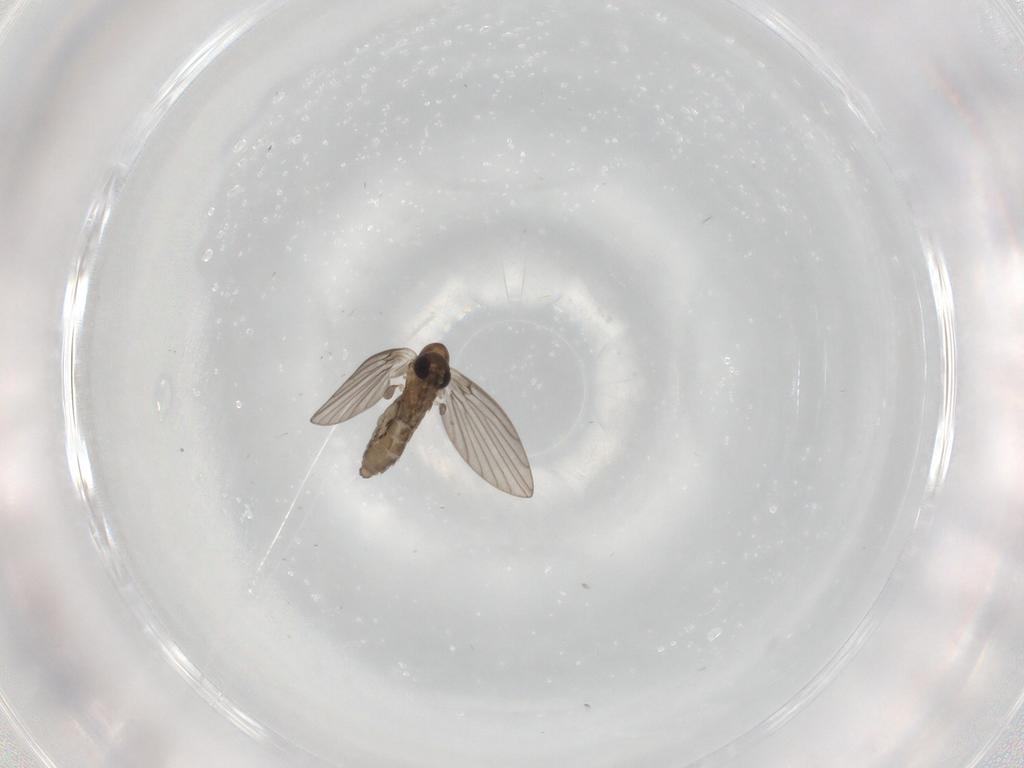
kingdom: Animalia
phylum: Arthropoda
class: Insecta
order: Diptera
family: Psychodidae
